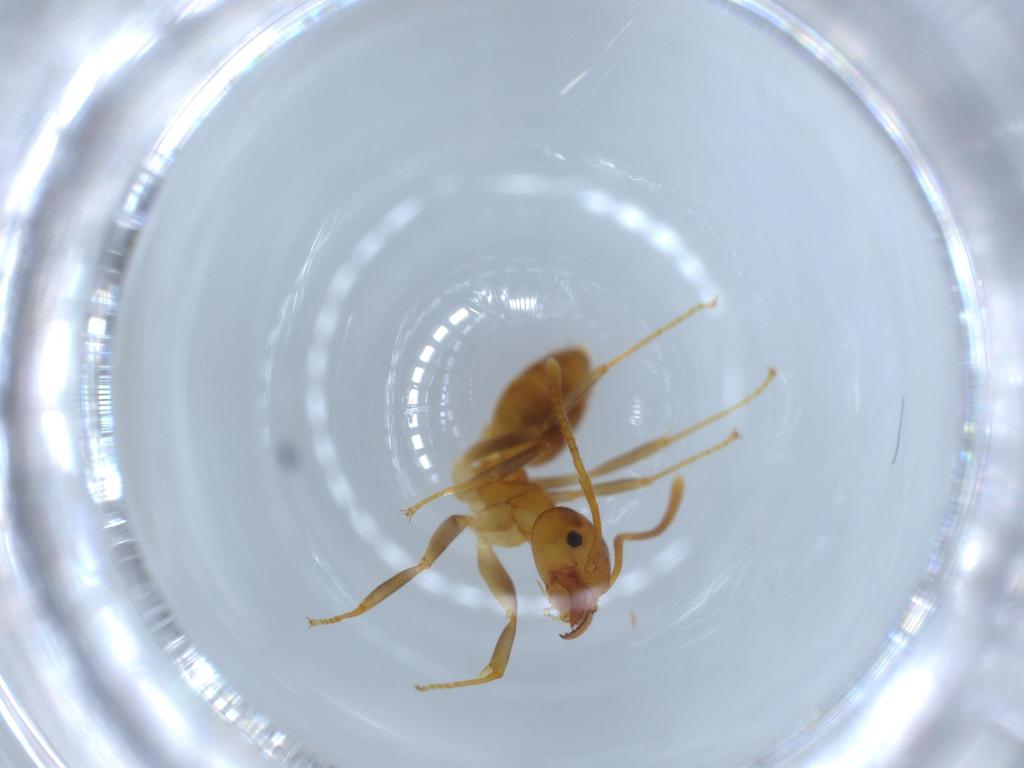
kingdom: Animalia
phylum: Arthropoda
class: Insecta
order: Hymenoptera
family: Formicidae
